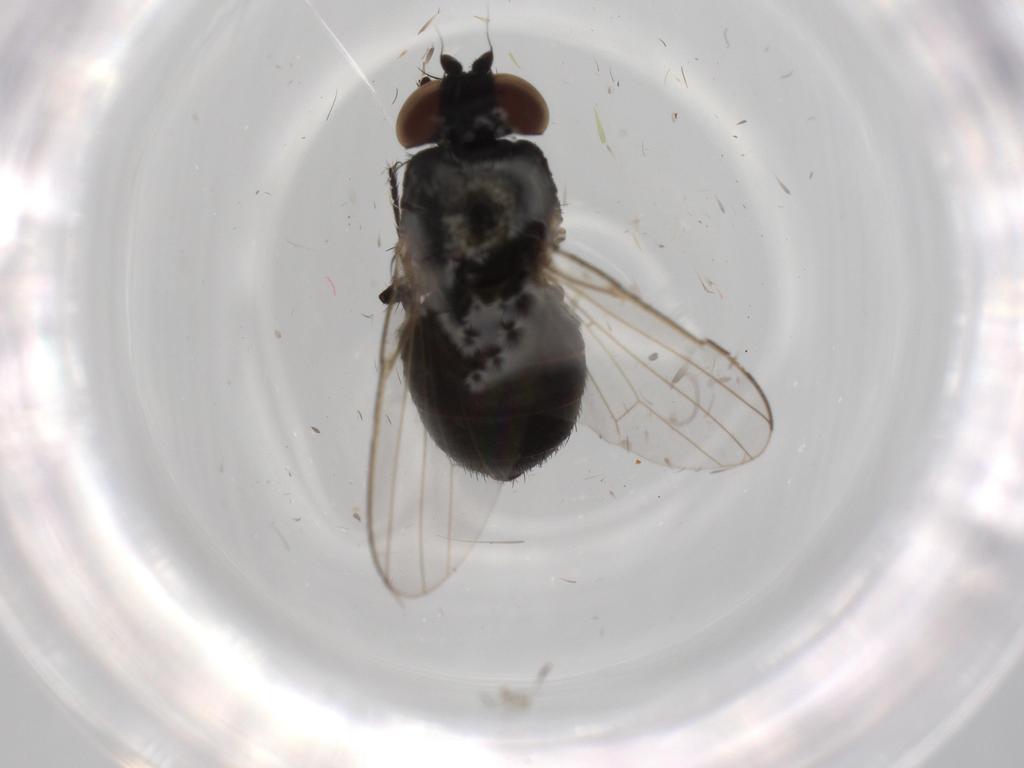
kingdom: Animalia
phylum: Arthropoda
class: Insecta
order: Diptera
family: Milichiidae
